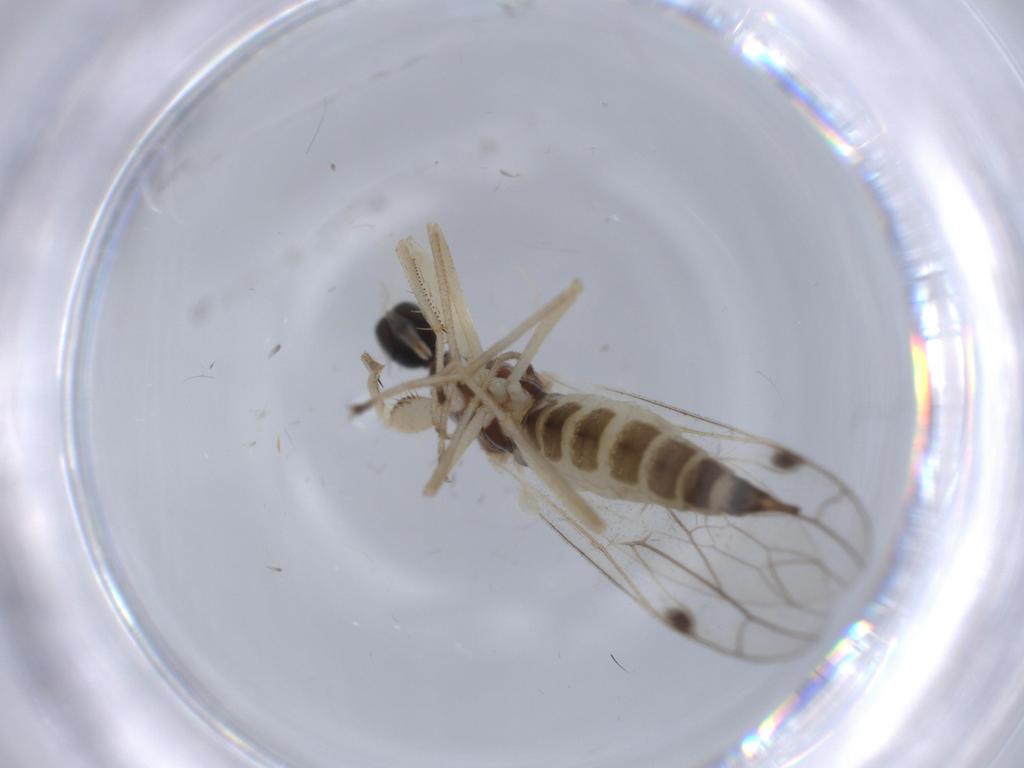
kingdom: Animalia
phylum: Arthropoda
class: Insecta
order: Diptera
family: Empididae
